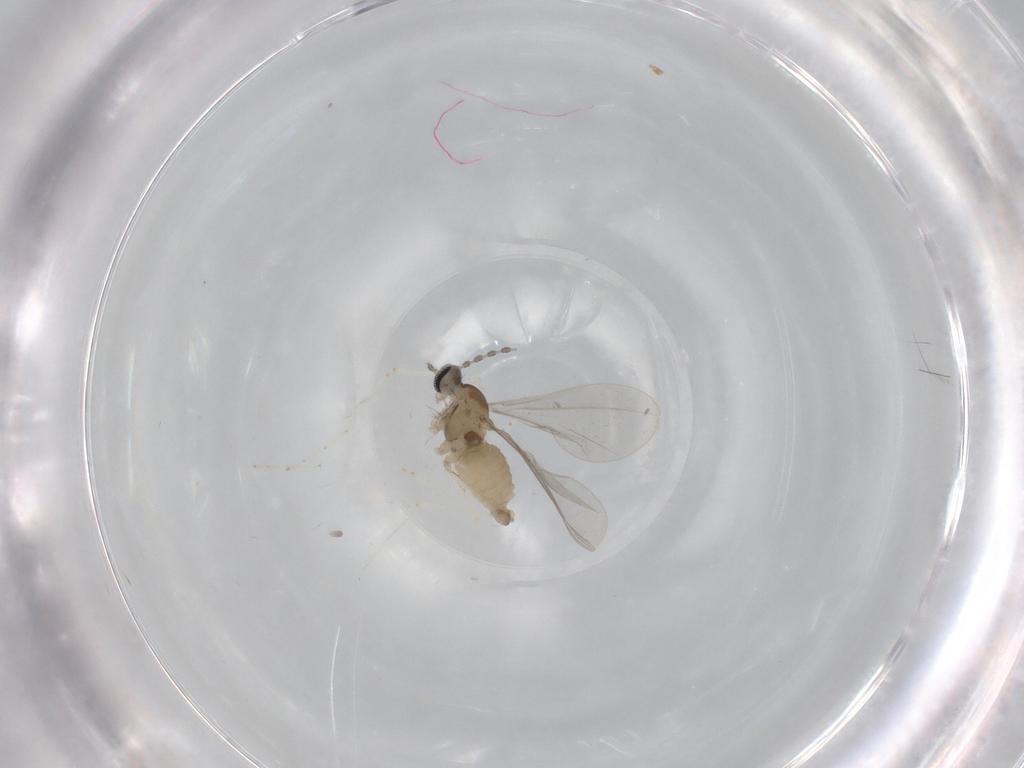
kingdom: Animalia
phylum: Arthropoda
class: Insecta
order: Diptera
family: Cecidomyiidae
